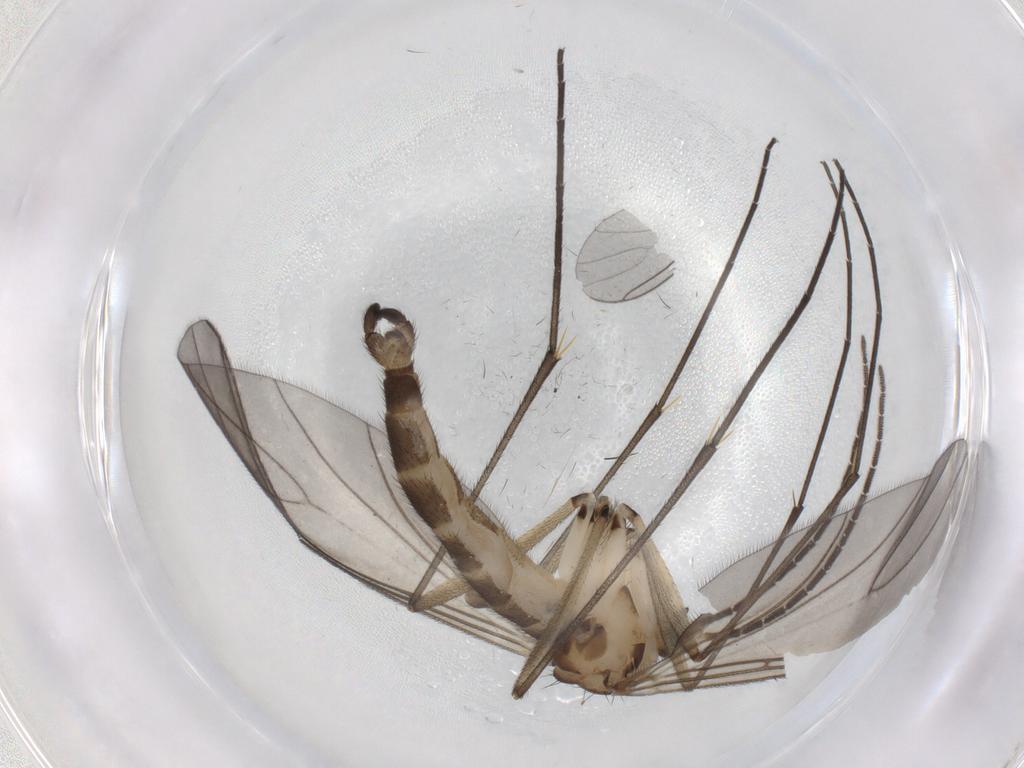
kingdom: Animalia
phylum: Arthropoda
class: Insecta
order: Diptera
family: Sciaridae
